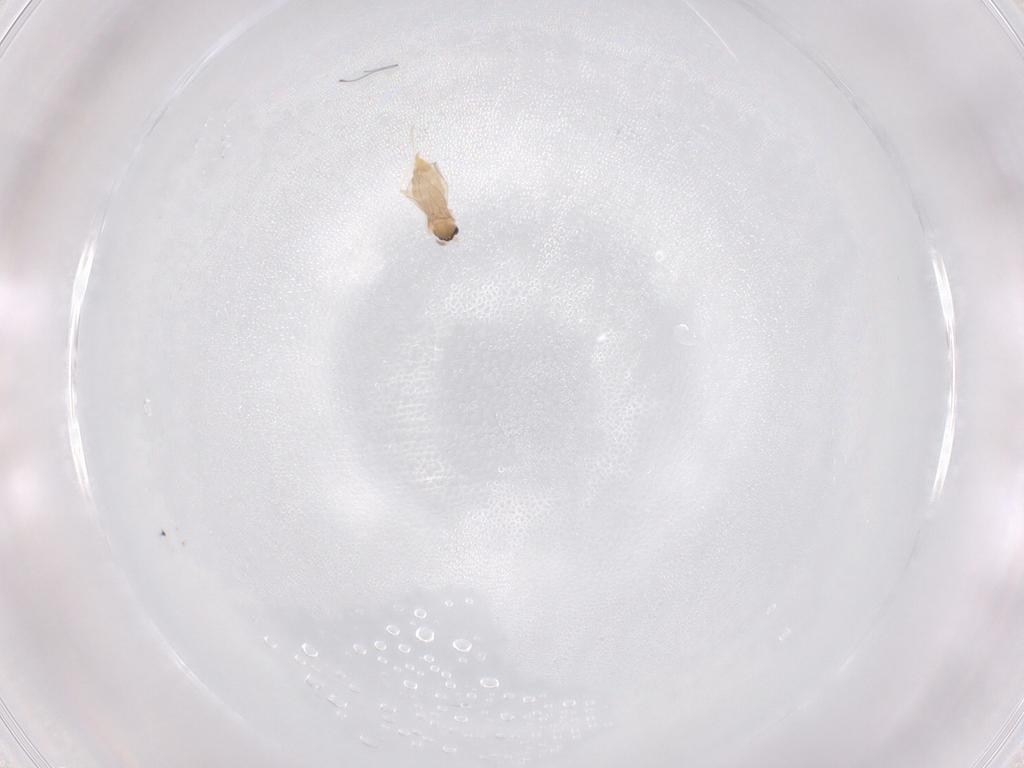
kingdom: Animalia
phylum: Arthropoda
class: Insecta
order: Diptera
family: Cecidomyiidae
